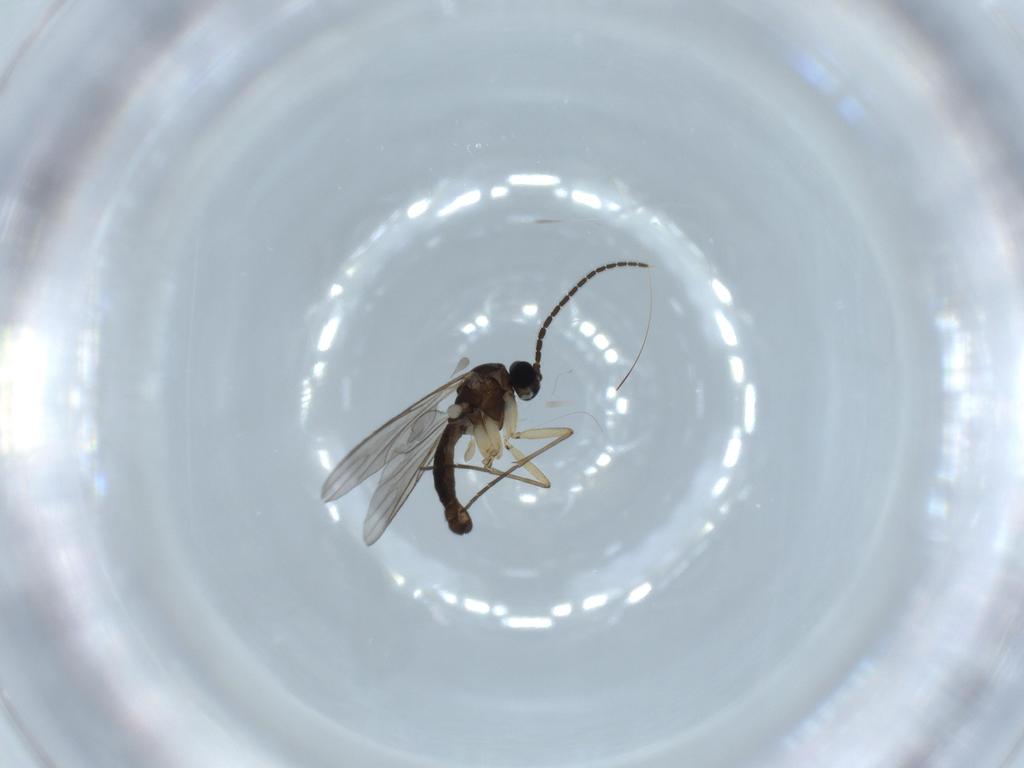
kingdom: Animalia
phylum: Arthropoda
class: Insecta
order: Diptera
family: Sciaridae
